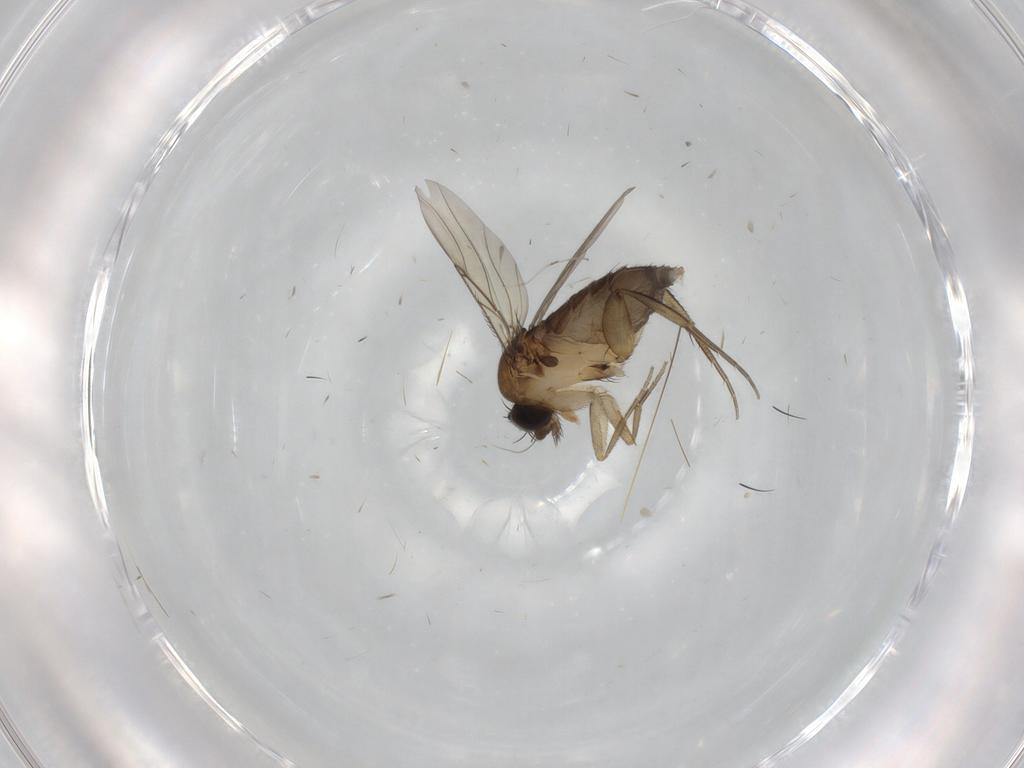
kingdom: Animalia
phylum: Arthropoda
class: Insecta
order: Diptera
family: Phoridae
